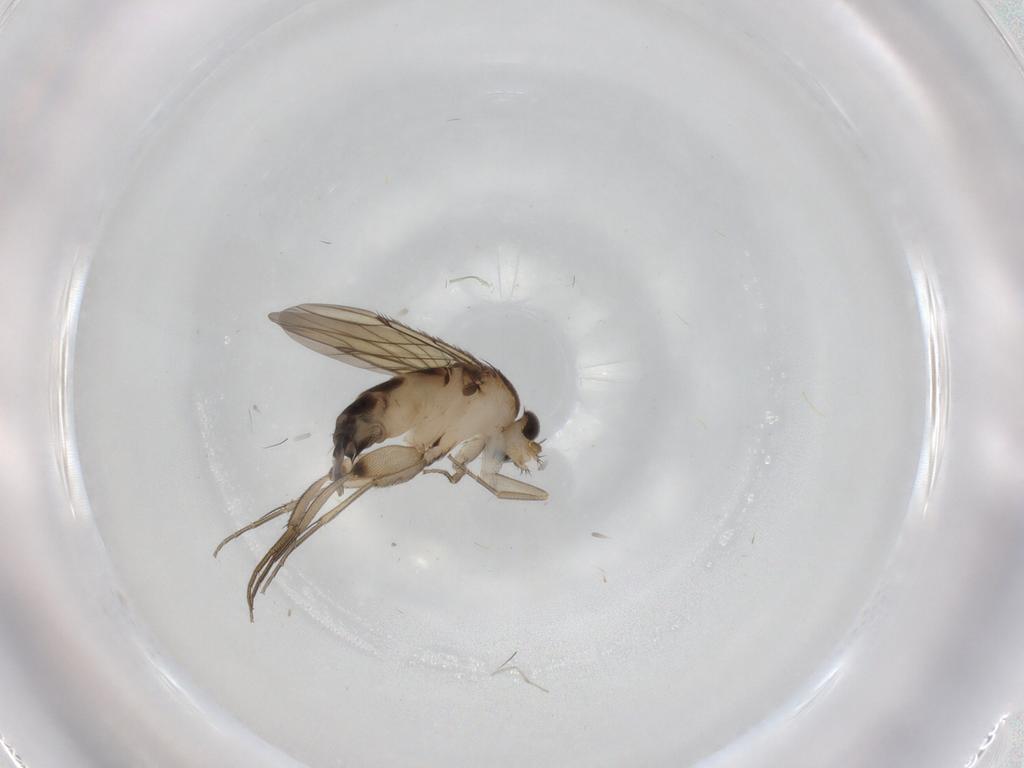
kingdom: Animalia
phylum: Arthropoda
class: Insecta
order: Diptera
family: Phoridae
